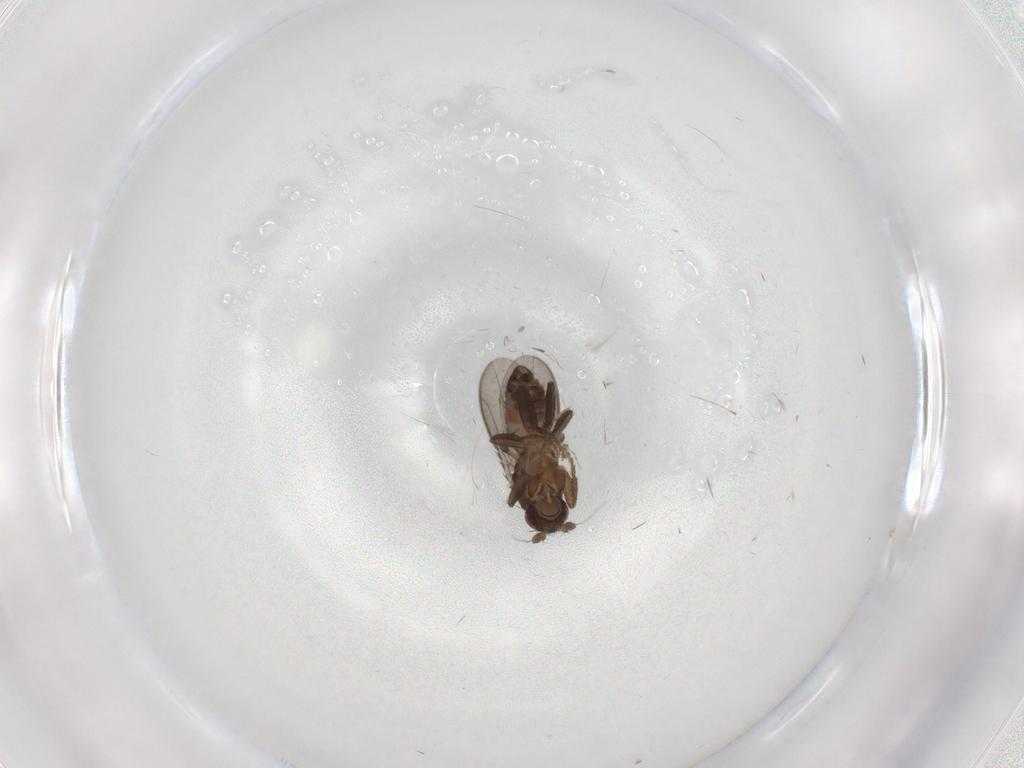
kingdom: Animalia
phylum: Arthropoda
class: Insecta
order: Diptera
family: Sphaeroceridae
